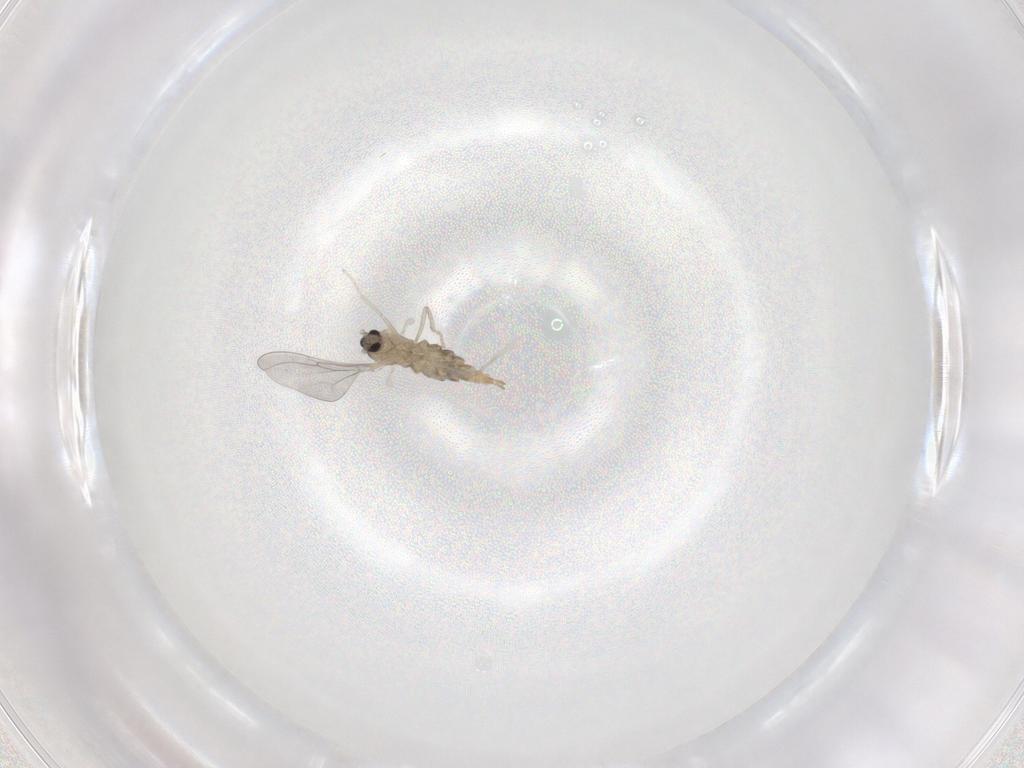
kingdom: Animalia
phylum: Arthropoda
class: Insecta
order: Diptera
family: Cecidomyiidae
